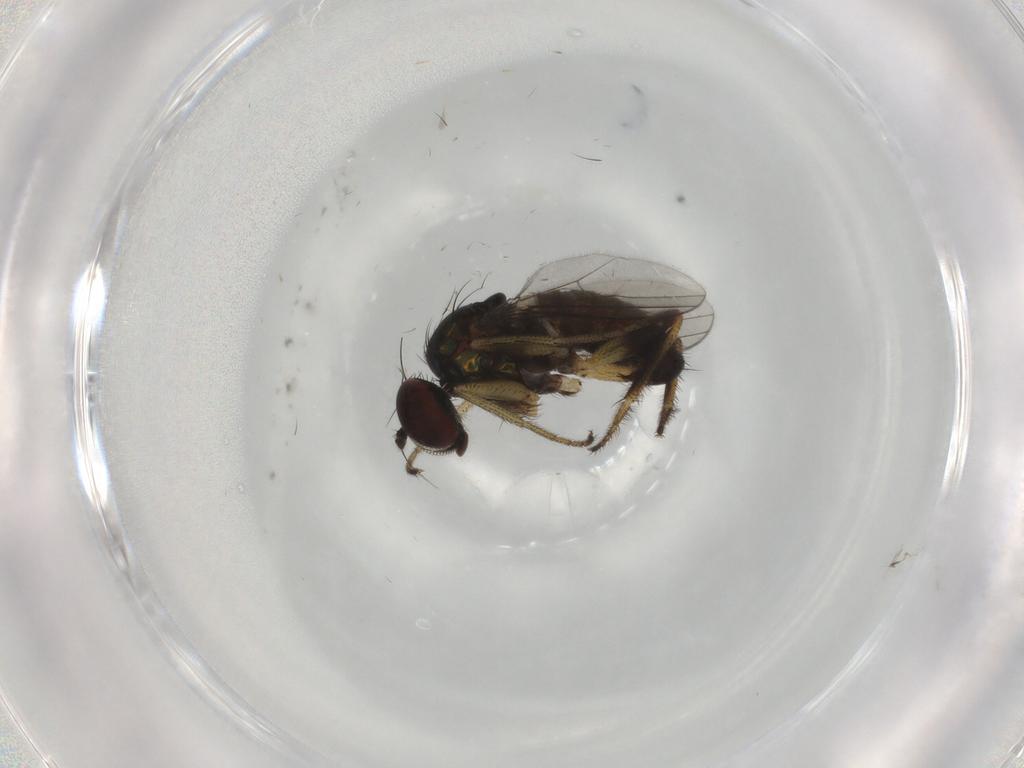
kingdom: Animalia
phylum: Arthropoda
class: Insecta
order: Diptera
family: Dolichopodidae
